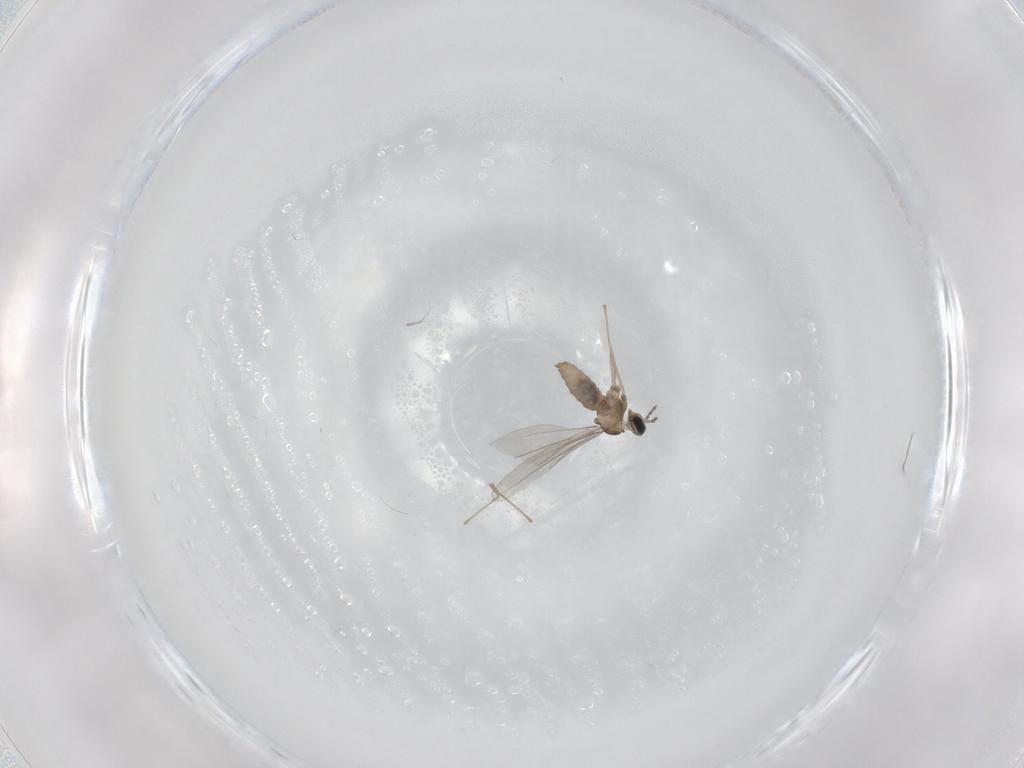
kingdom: Animalia
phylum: Arthropoda
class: Insecta
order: Diptera
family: Cecidomyiidae
